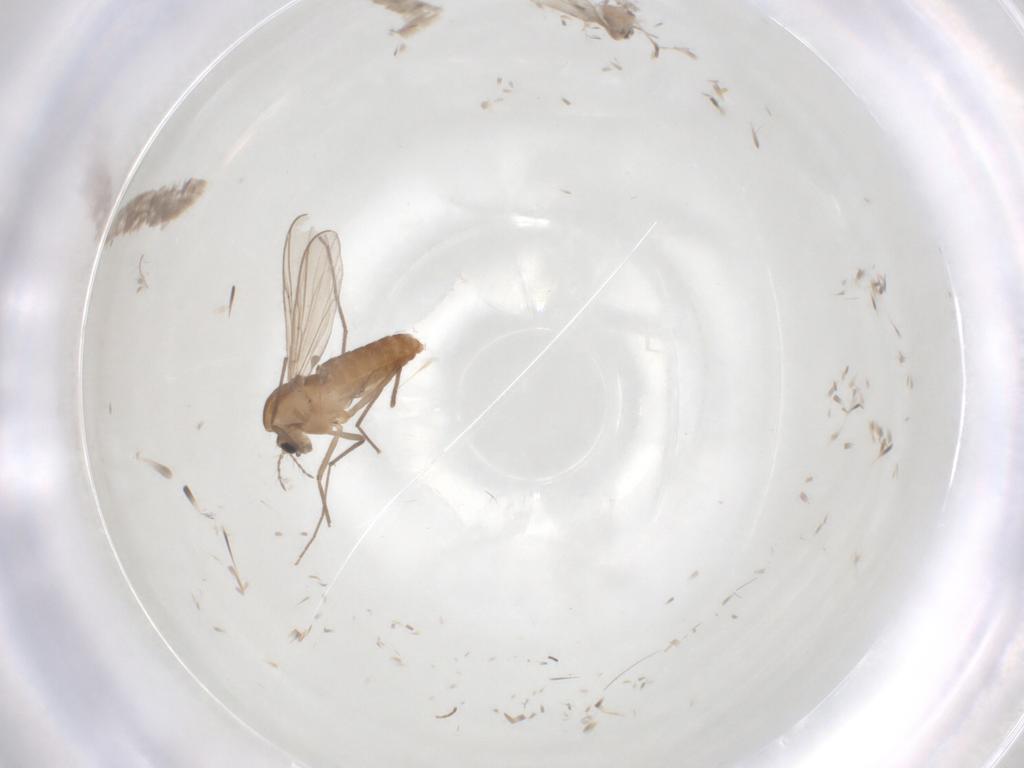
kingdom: Animalia
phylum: Arthropoda
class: Insecta
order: Diptera
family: Chironomidae
